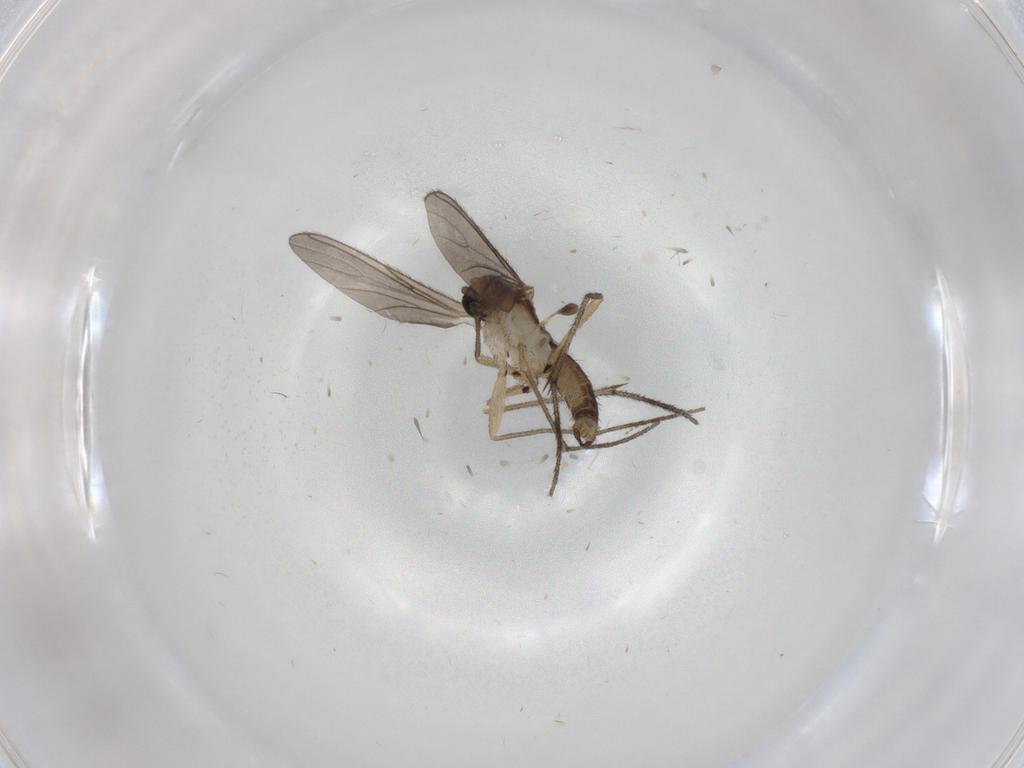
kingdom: Animalia
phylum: Arthropoda
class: Insecta
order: Diptera
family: Sciaridae
